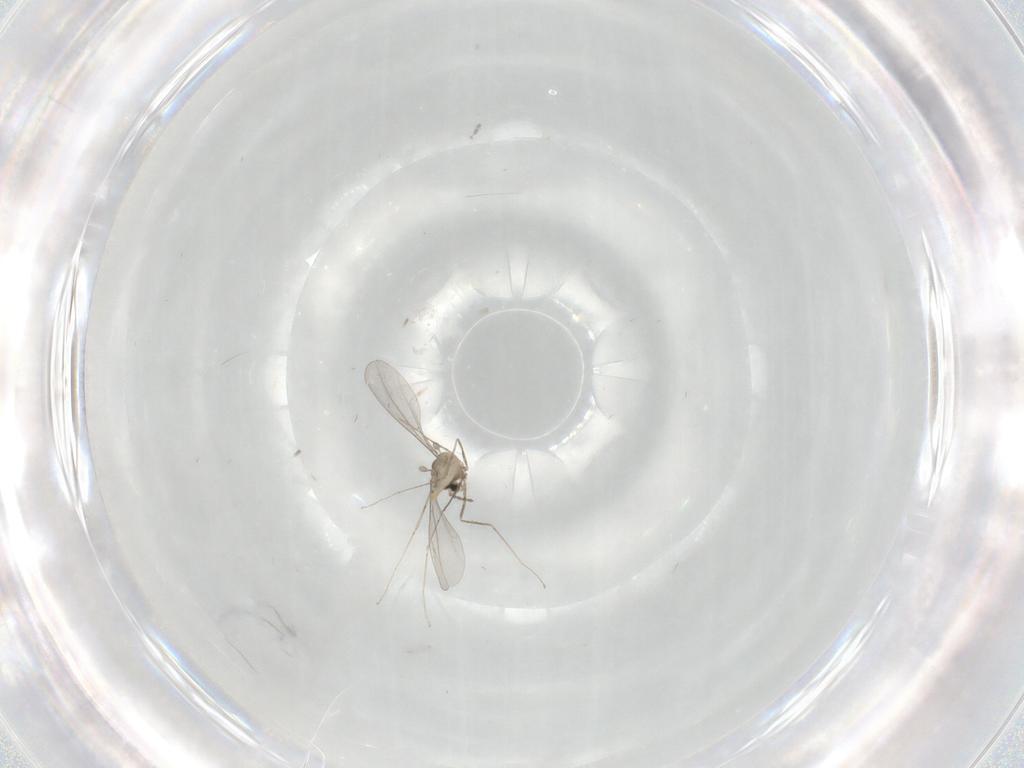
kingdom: Animalia
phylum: Arthropoda
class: Insecta
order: Diptera
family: Cecidomyiidae
